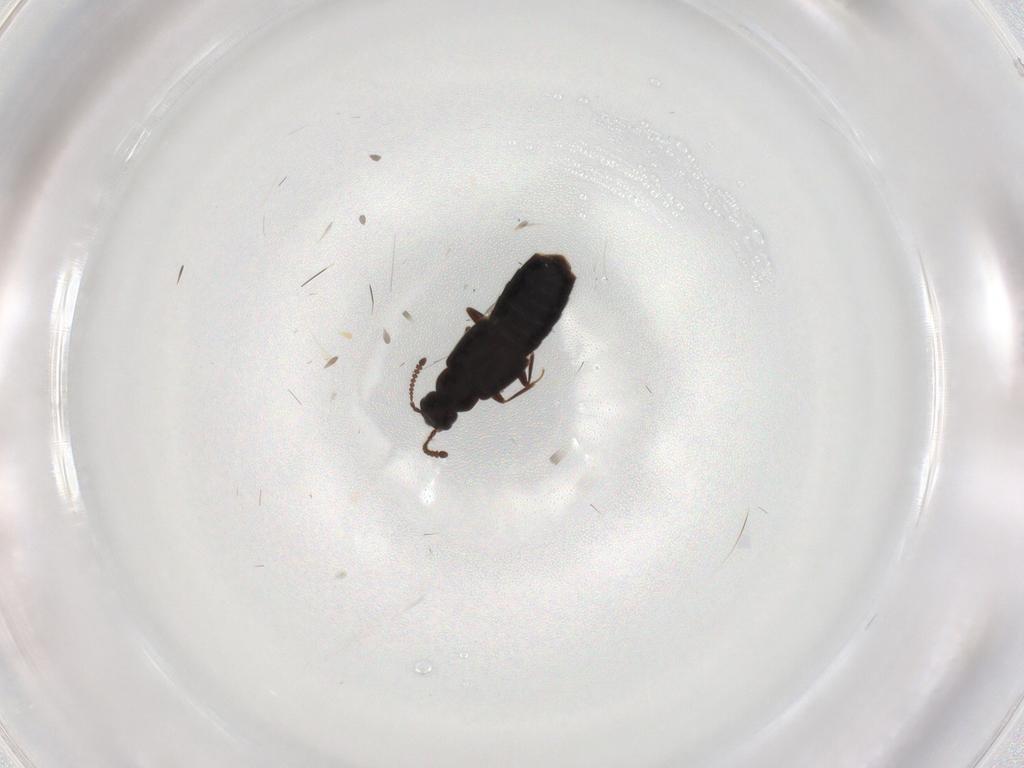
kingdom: Animalia
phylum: Arthropoda
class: Insecta
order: Coleoptera
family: Staphylinidae
